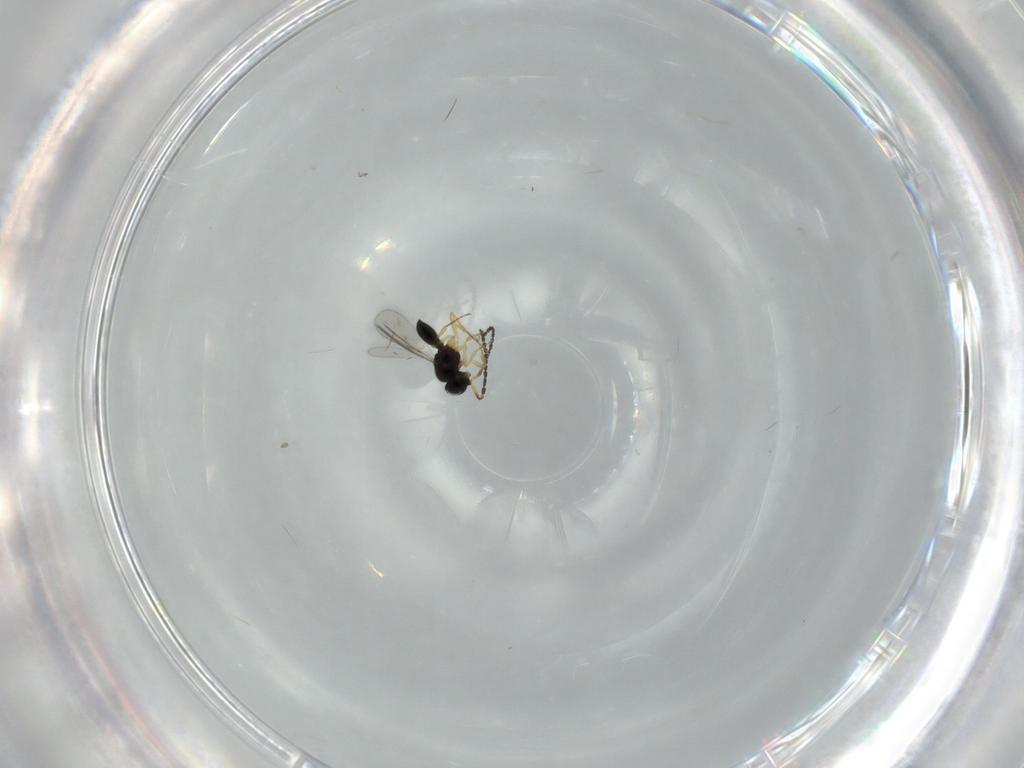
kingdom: Animalia
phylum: Arthropoda
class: Insecta
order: Hymenoptera
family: Scelionidae
